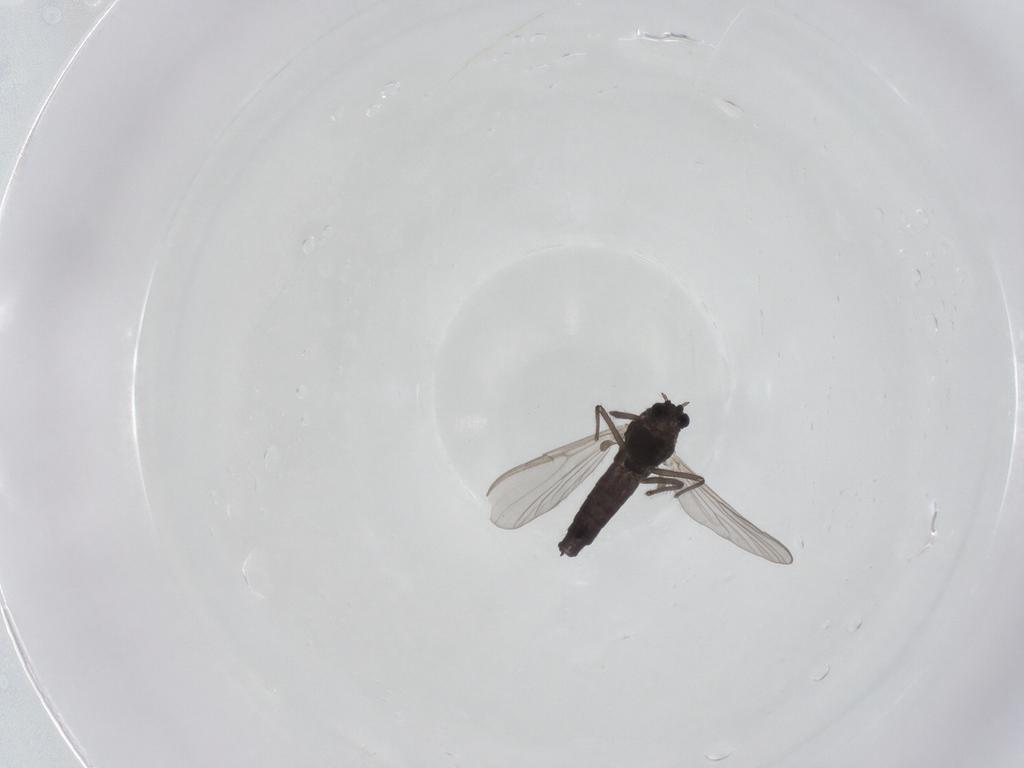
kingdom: Animalia
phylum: Arthropoda
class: Insecta
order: Diptera
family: Chironomidae
